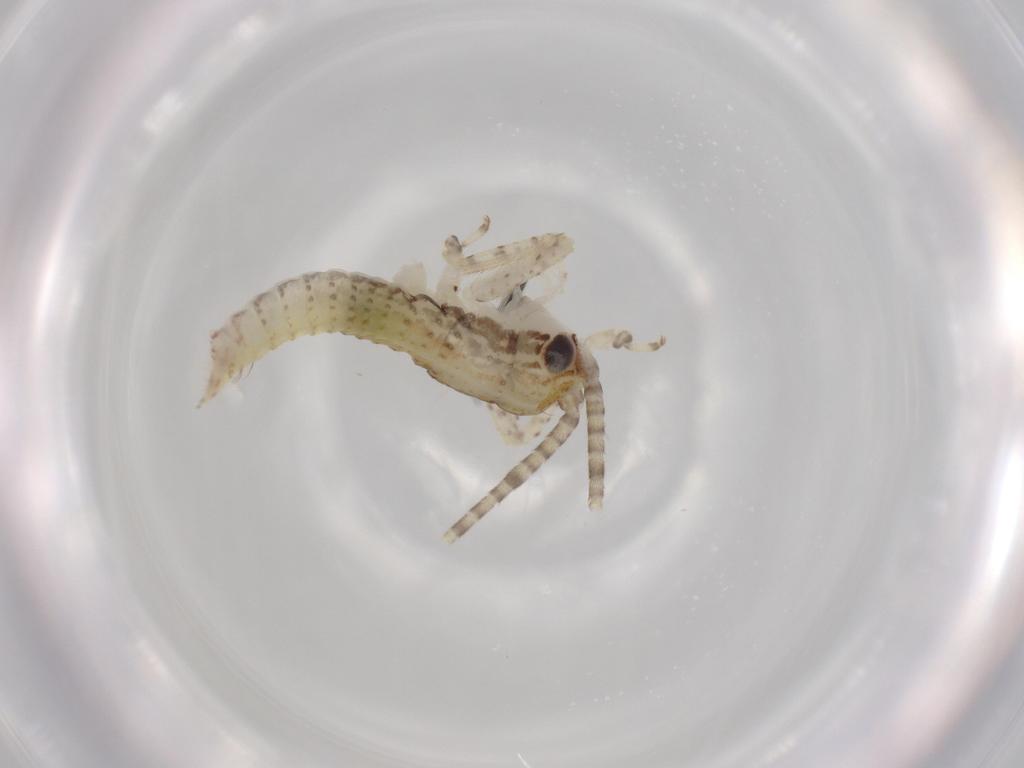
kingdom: Animalia
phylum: Arthropoda
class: Insecta
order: Orthoptera
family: Gryllidae
